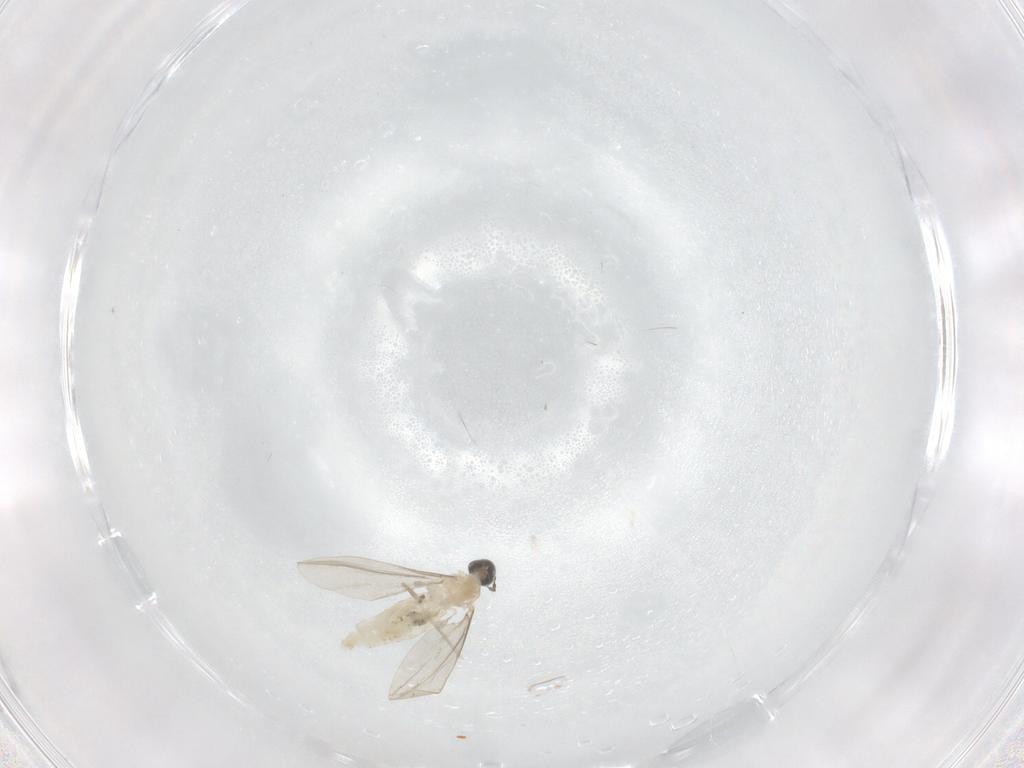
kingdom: Animalia
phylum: Arthropoda
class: Insecta
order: Diptera
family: Cecidomyiidae
